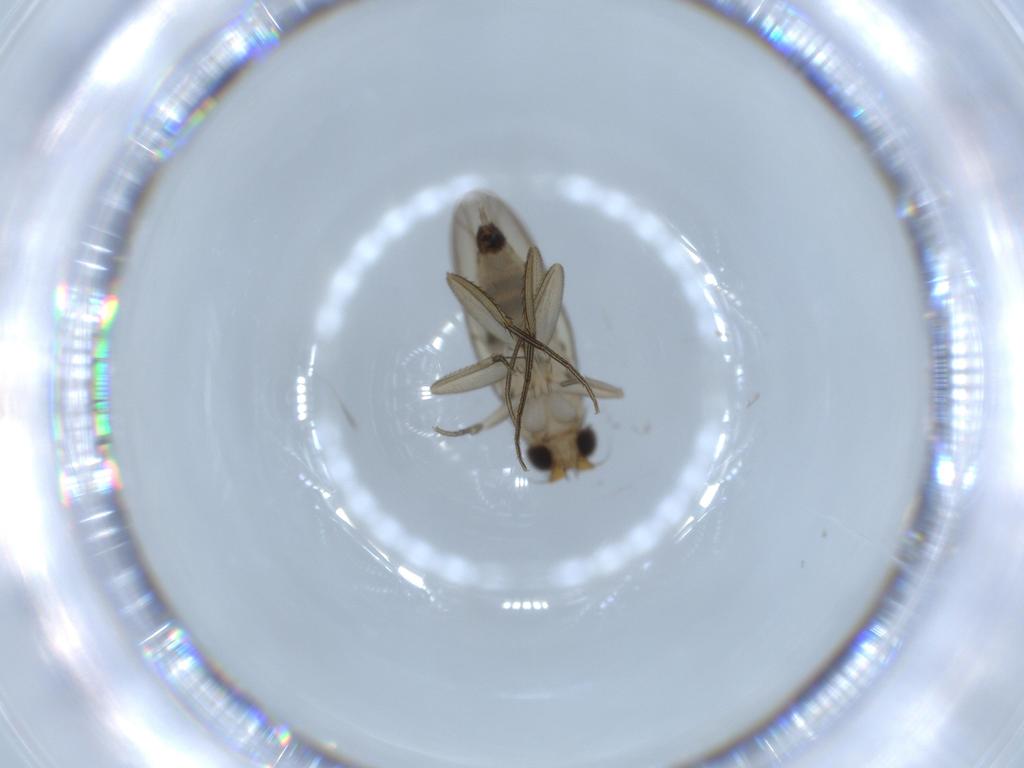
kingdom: Animalia
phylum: Arthropoda
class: Insecta
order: Diptera
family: Phoridae
